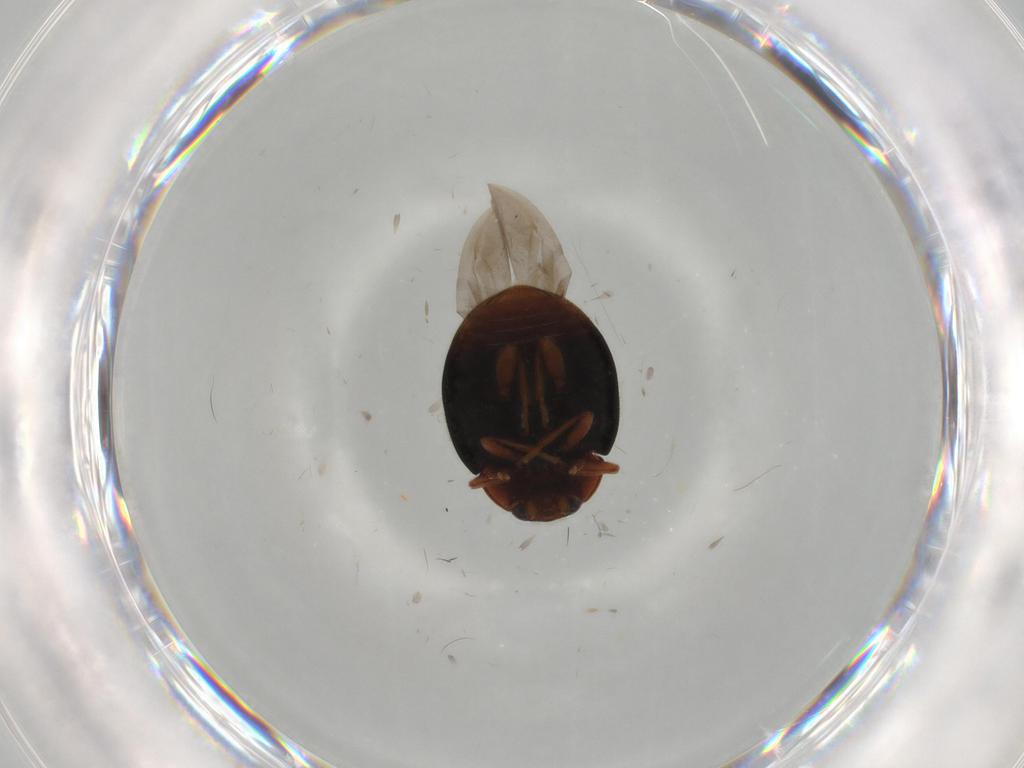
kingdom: Animalia
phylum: Arthropoda
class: Insecta
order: Coleoptera
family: Coccinellidae
